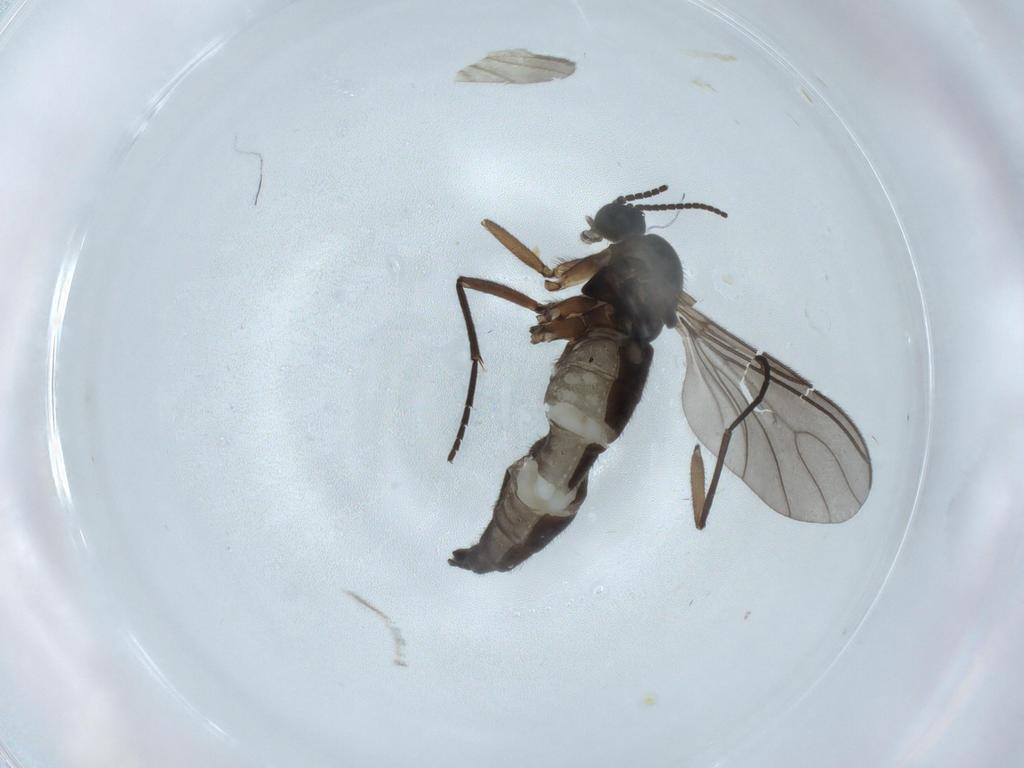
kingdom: Animalia
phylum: Arthropoda
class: Insecta
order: Diptera
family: Sciaridae
